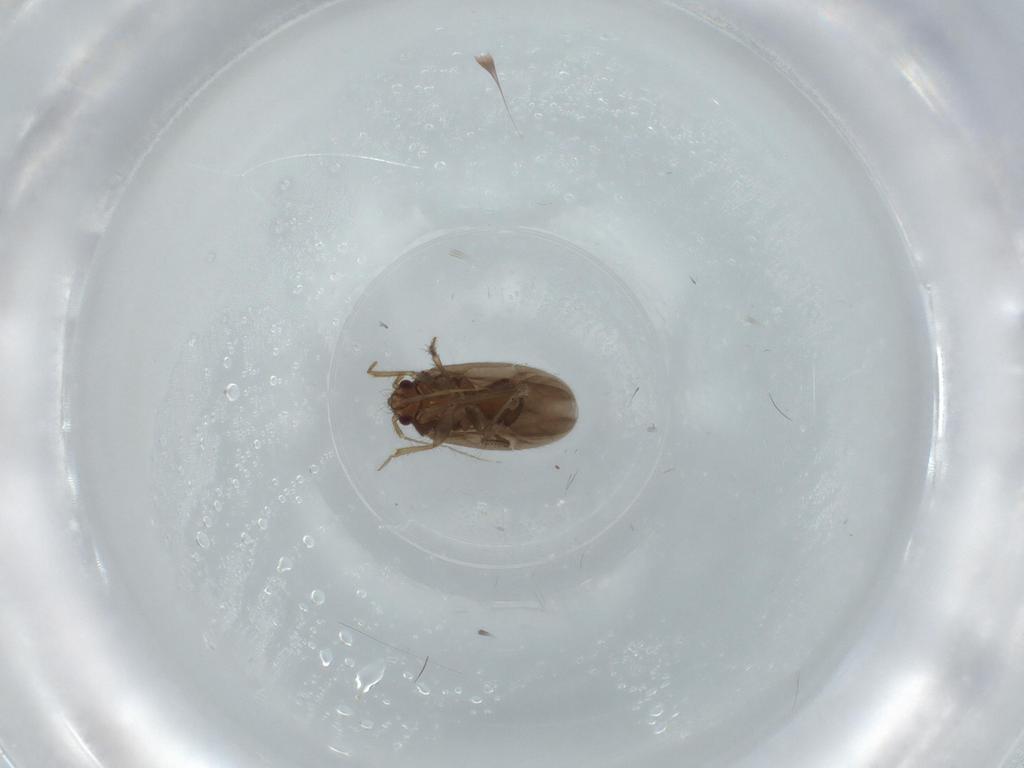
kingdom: Animalia
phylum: Arthropoda
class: Insecta
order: Hemiptera
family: Ceratocombidae
